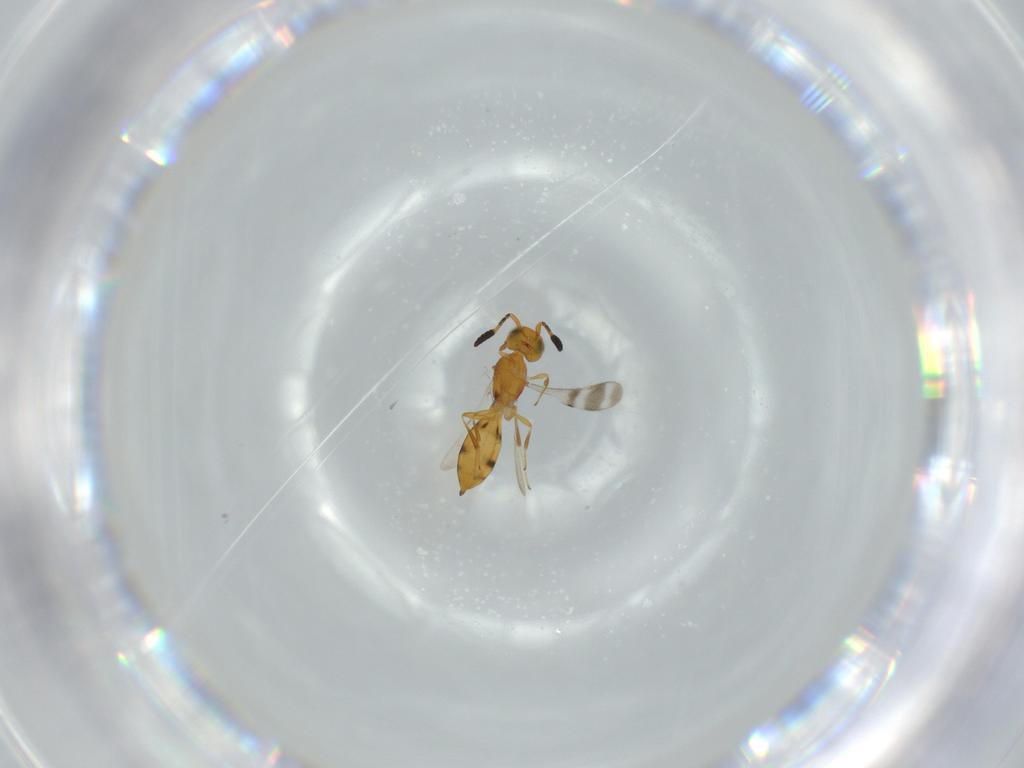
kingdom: Animalia
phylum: Arthropoda
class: Insecta
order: Hymenoptera
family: Scelionidae
